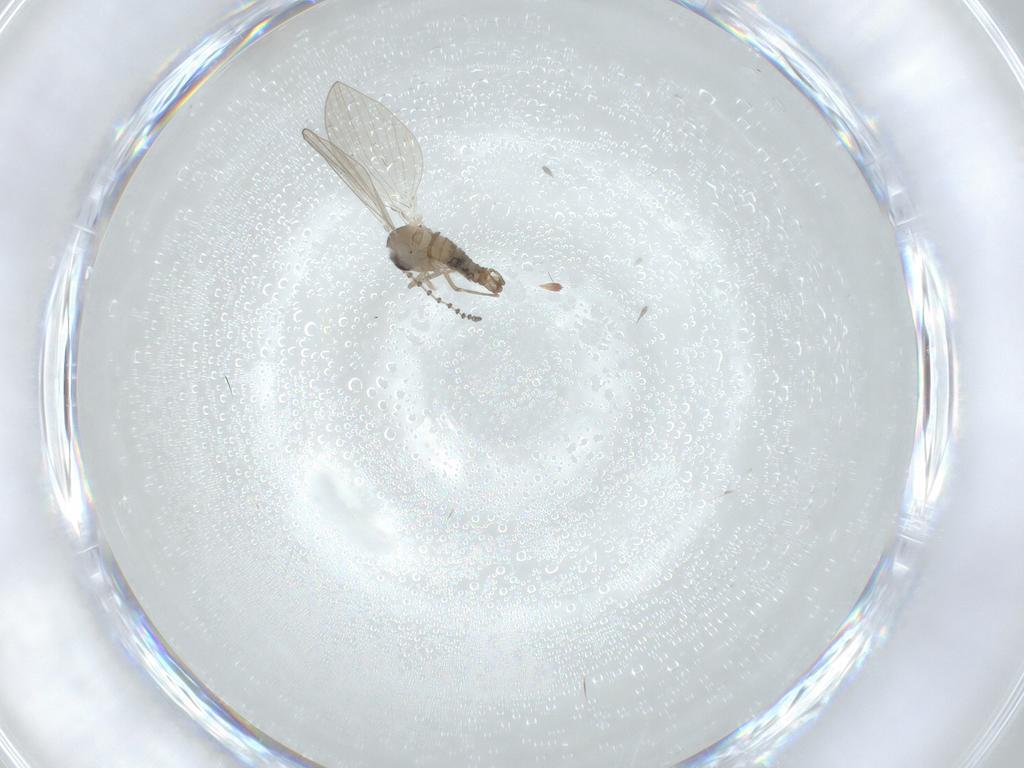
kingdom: Animalia
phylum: Arthropoda
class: Insecta
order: Diptera
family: Psychodidae
